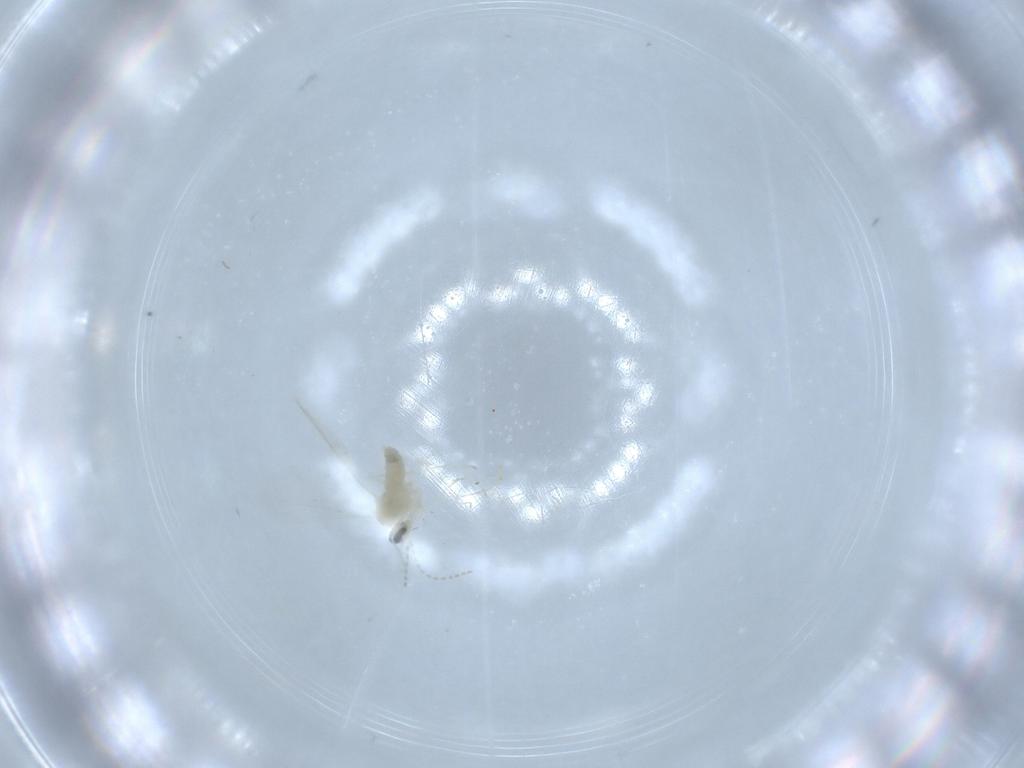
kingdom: Animalia
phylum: Arthropoda
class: Insecta
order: Diptera
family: Cecidomyiidae
